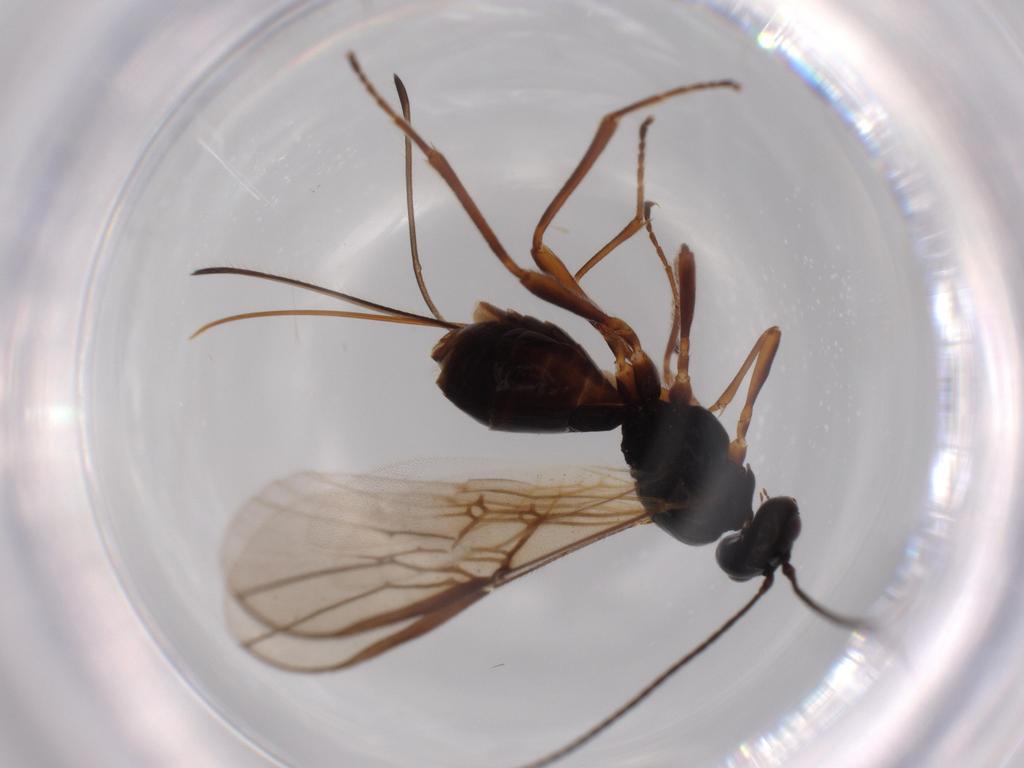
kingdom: Animalia
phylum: Arthropoda
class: Insecta
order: Hymenoptera
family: Braconidae
